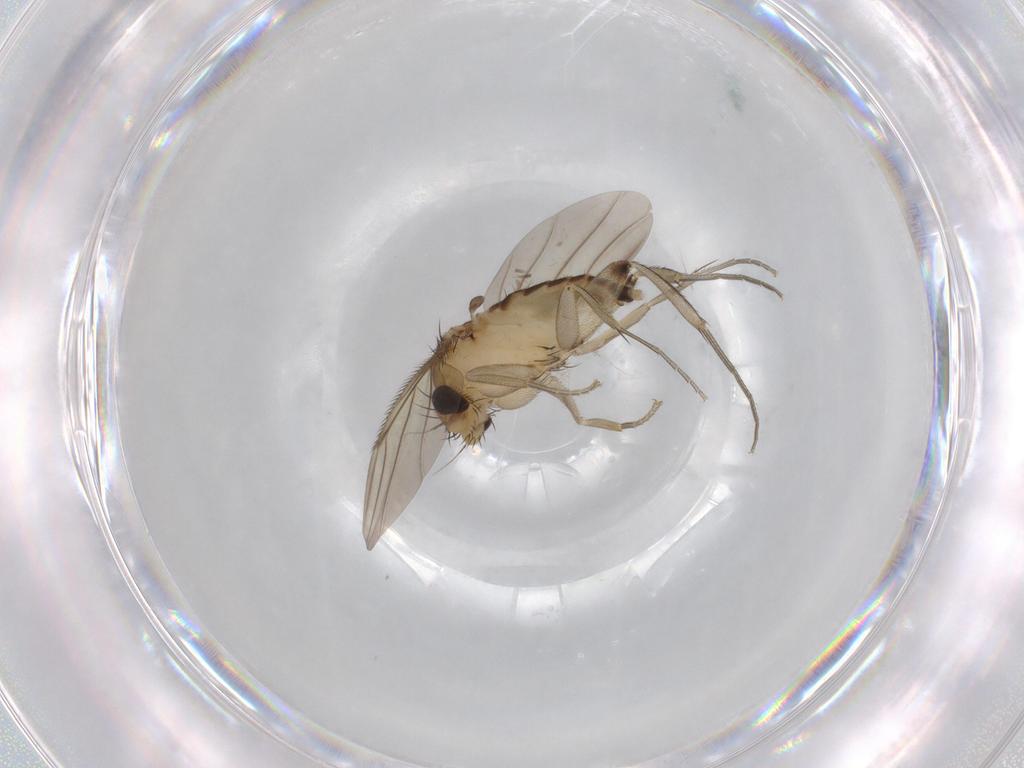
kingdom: Animalia
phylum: Arthropoda
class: Insecta
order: Diptera
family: Phoridae
